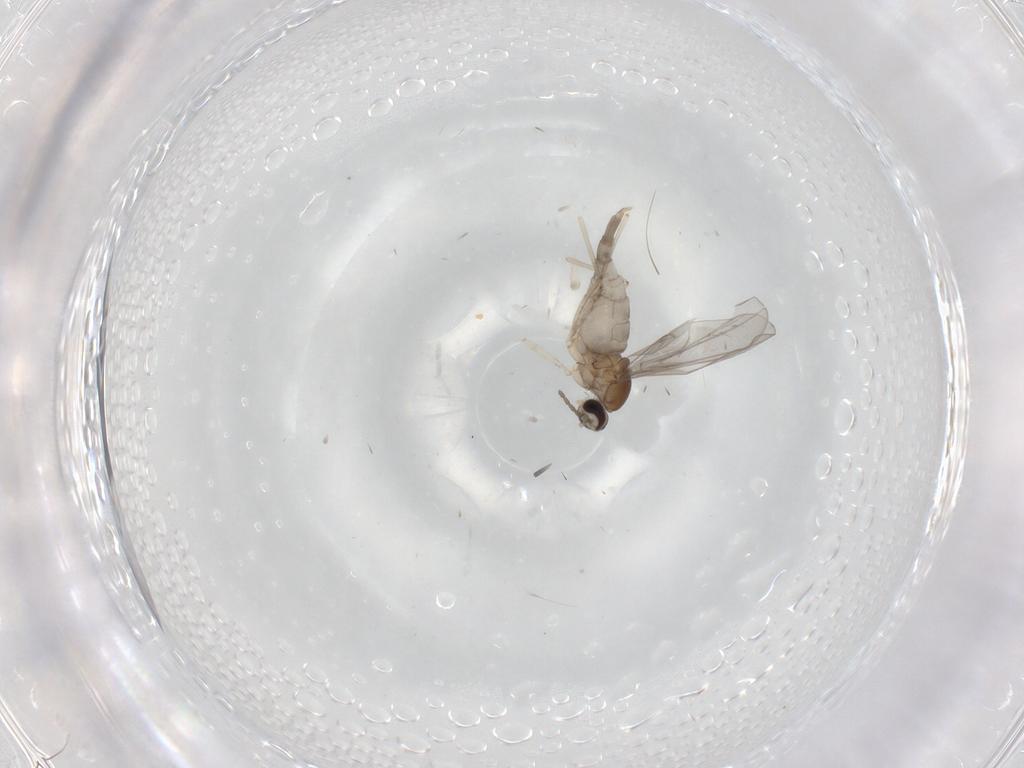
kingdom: Animalia
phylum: Arthropoda
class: Insecta
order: Diptera
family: Cecidomyiidae
